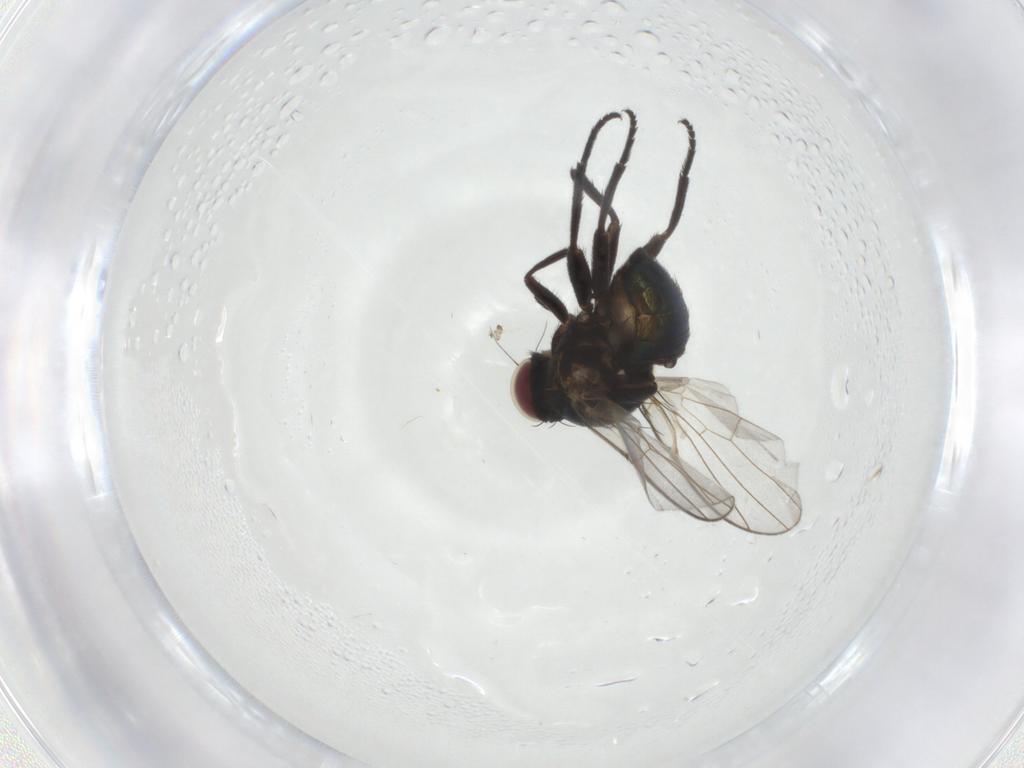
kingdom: Animalia
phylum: Arthropoda
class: Insecta
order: Diptera
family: Agromyzidae
